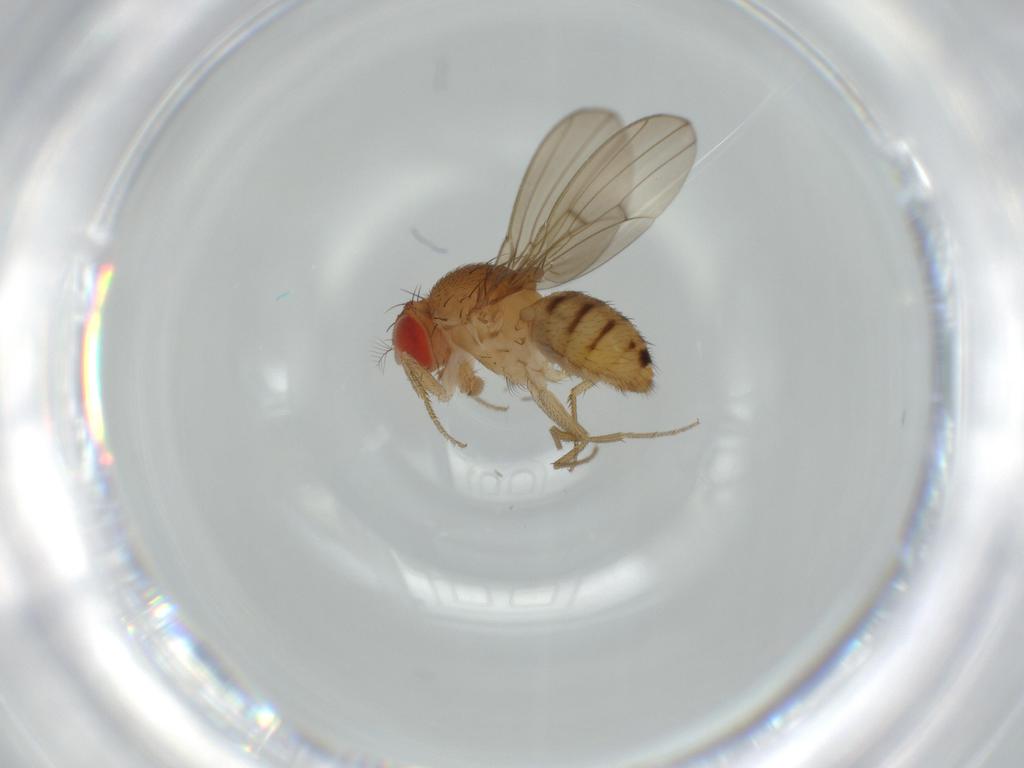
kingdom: Animalia
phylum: Arthropoda
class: Insecta
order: Diptera
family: Drosophilidae
